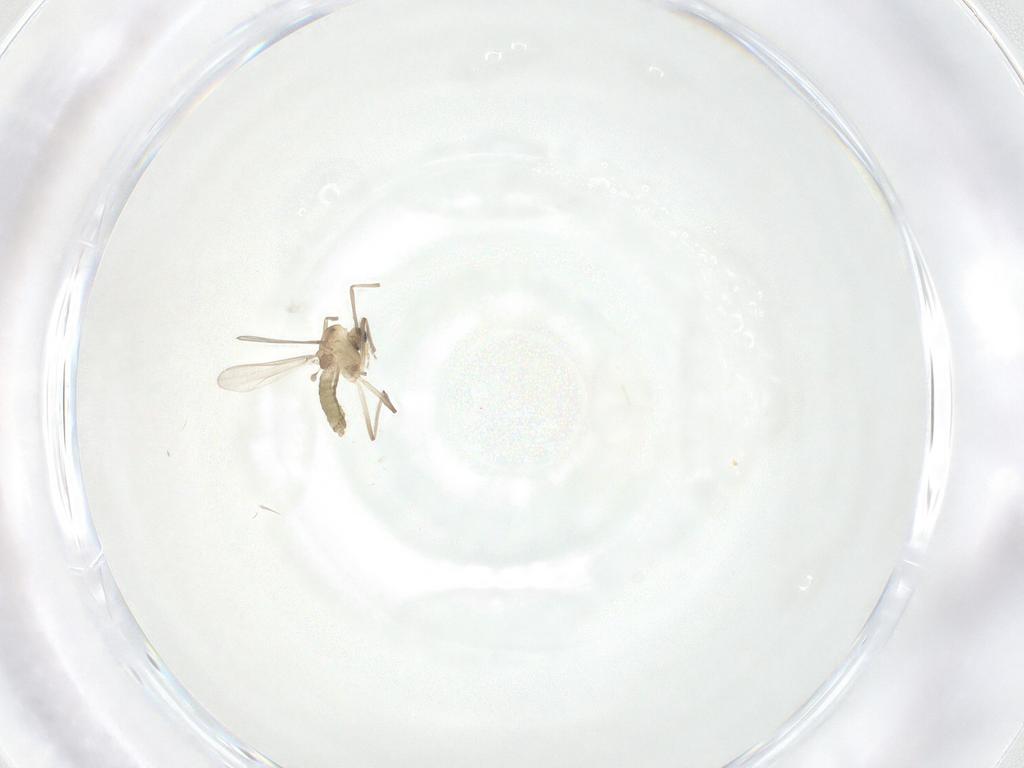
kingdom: Animalia
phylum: Arthropoda
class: Insecta
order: Diptera
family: Chironomidae
